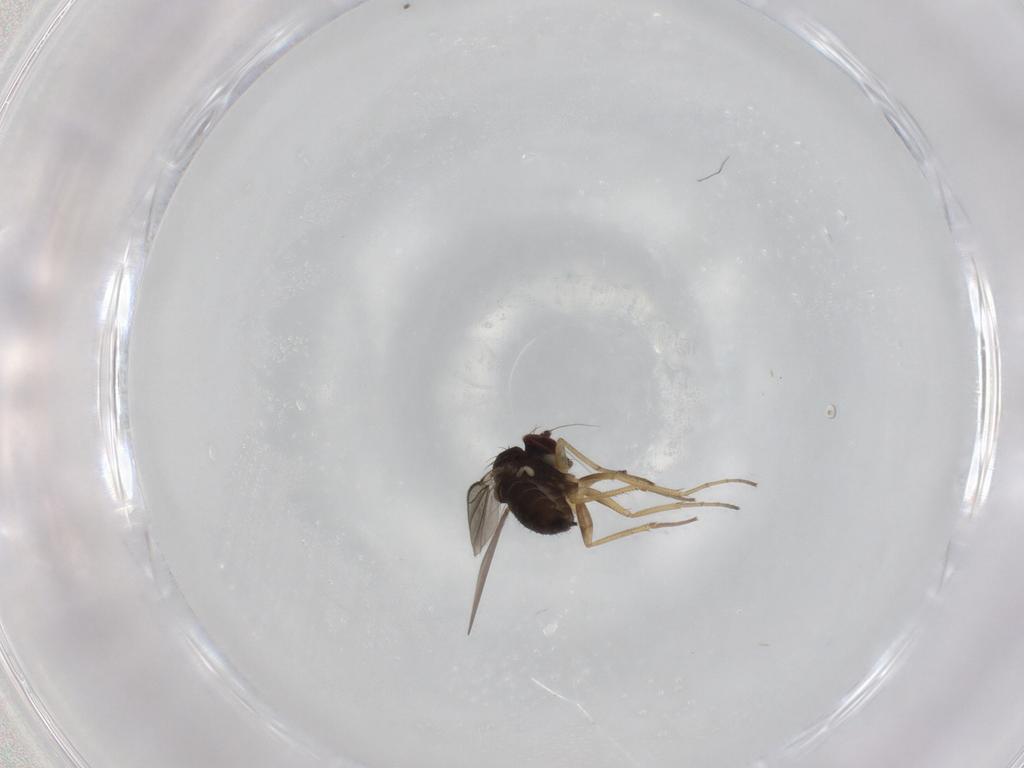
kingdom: Animalia
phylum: Arthropoda
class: Insecta
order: Diptera
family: Dolichopodidae
